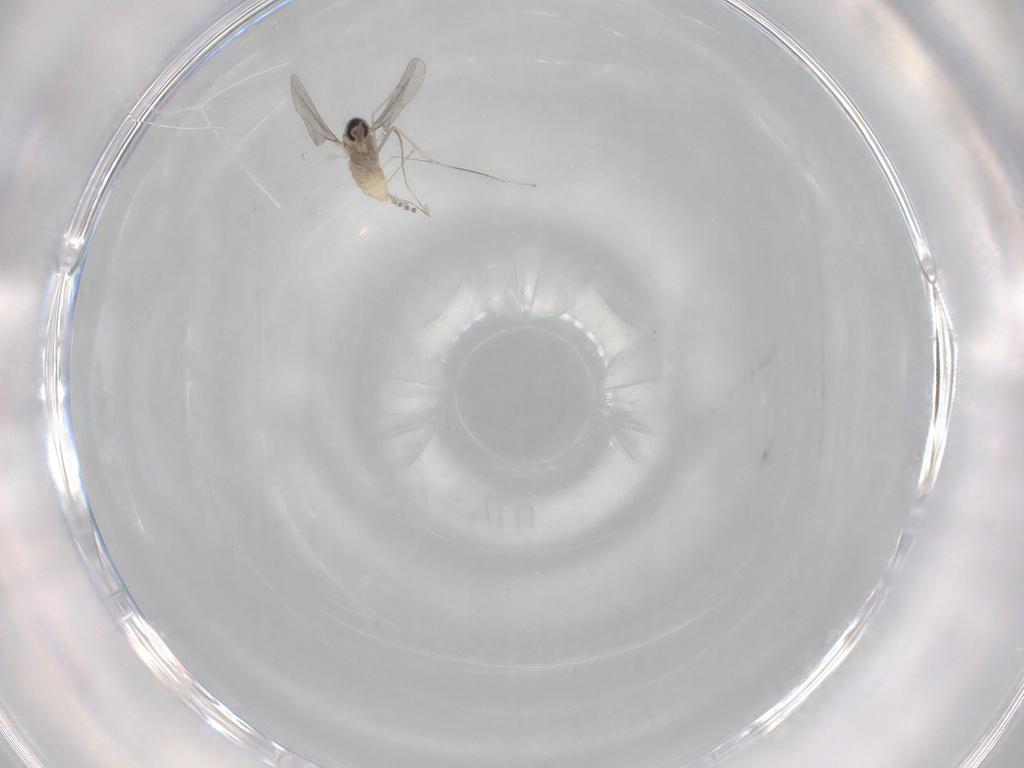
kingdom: Animalia
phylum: Arthropoda
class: Insecta
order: Diptera
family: Cecidomyiidae
